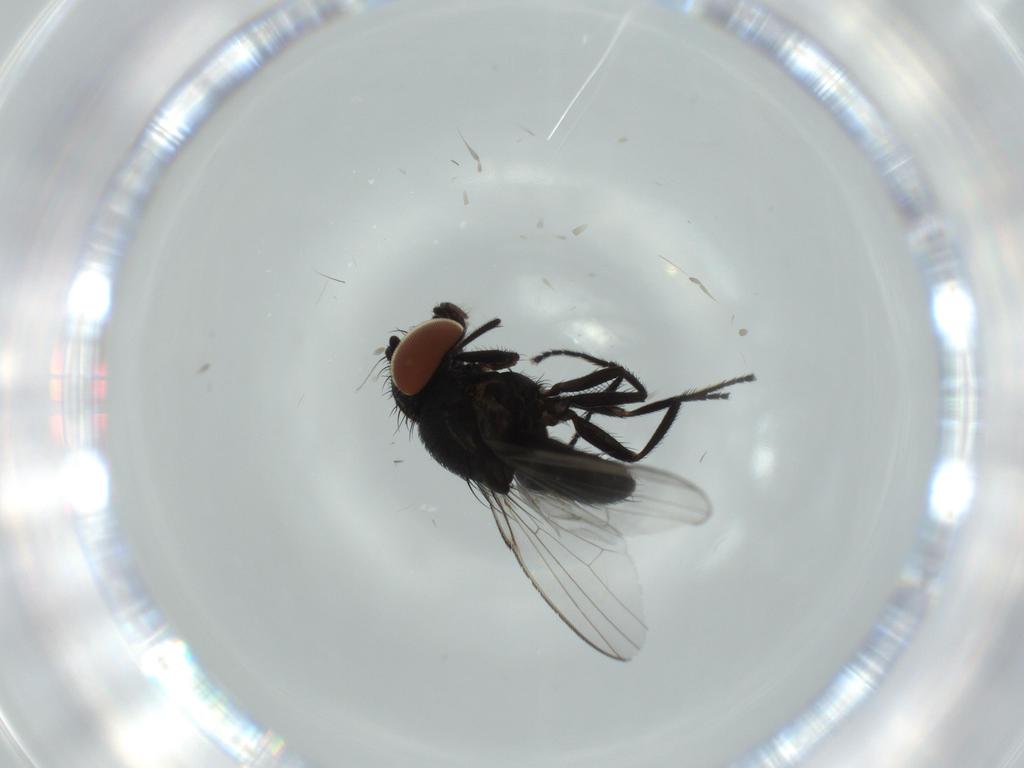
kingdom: Animalia
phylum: Arthropoda
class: Insecta
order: Diptera
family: Milichiidae
